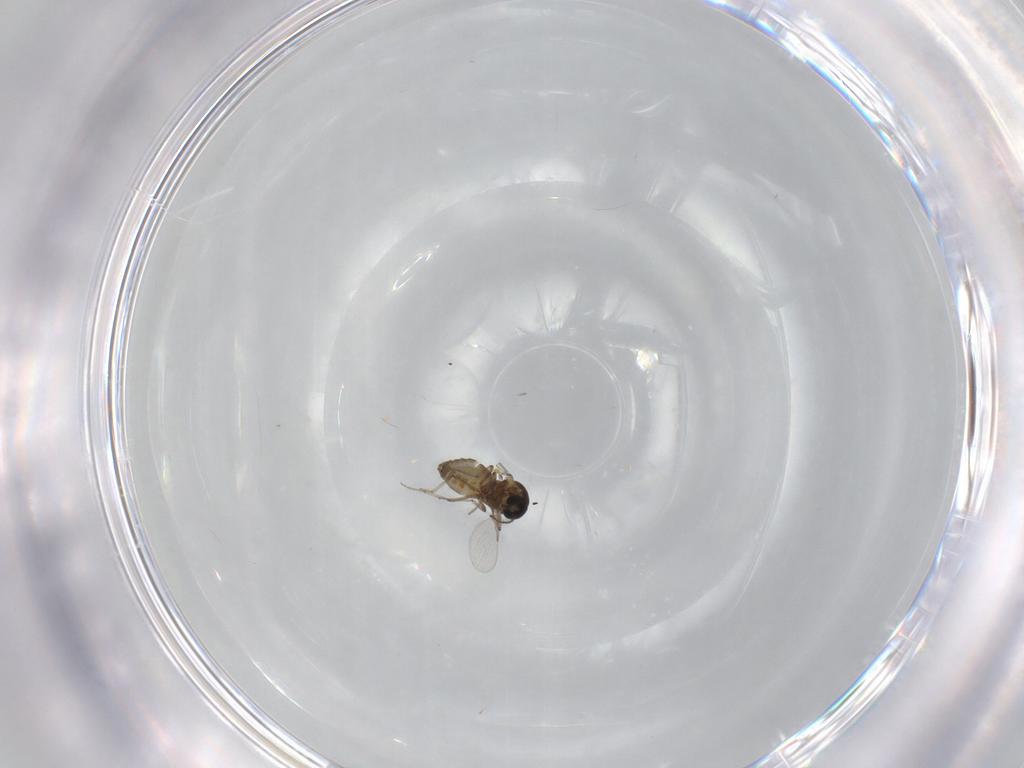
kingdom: Animalia
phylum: Arthropoda
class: Insecta
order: Diptera
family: Ceratopogonidae
